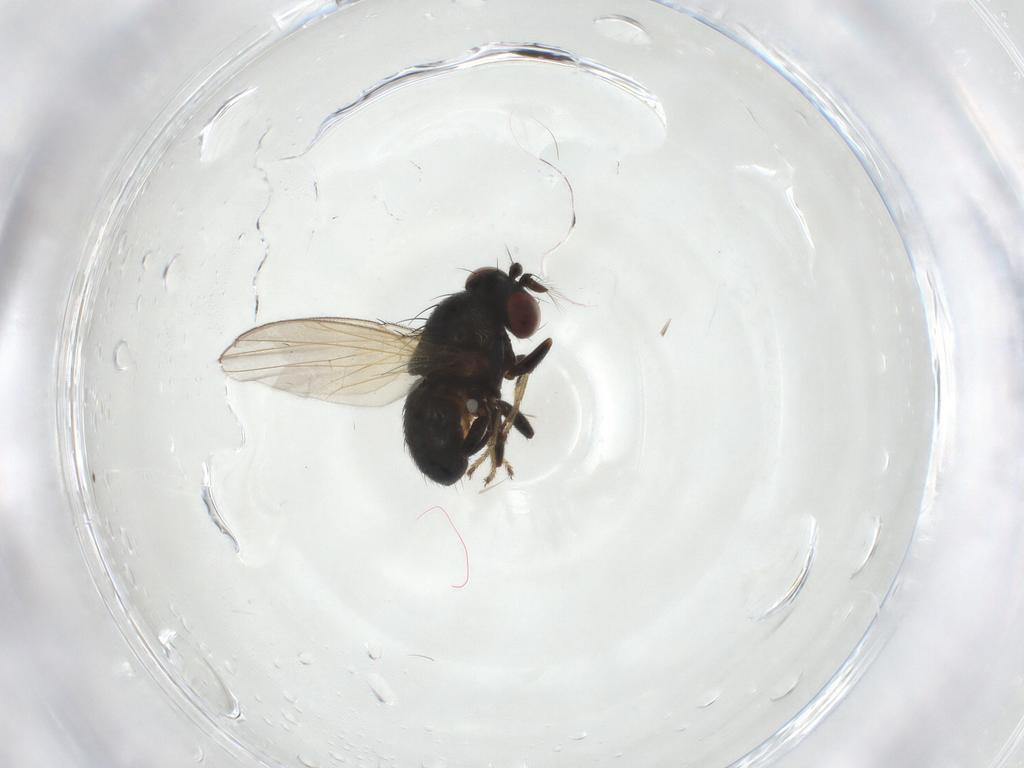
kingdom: Animalia
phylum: Arthropoda
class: Insecta
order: Diptera
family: Ephydridae
